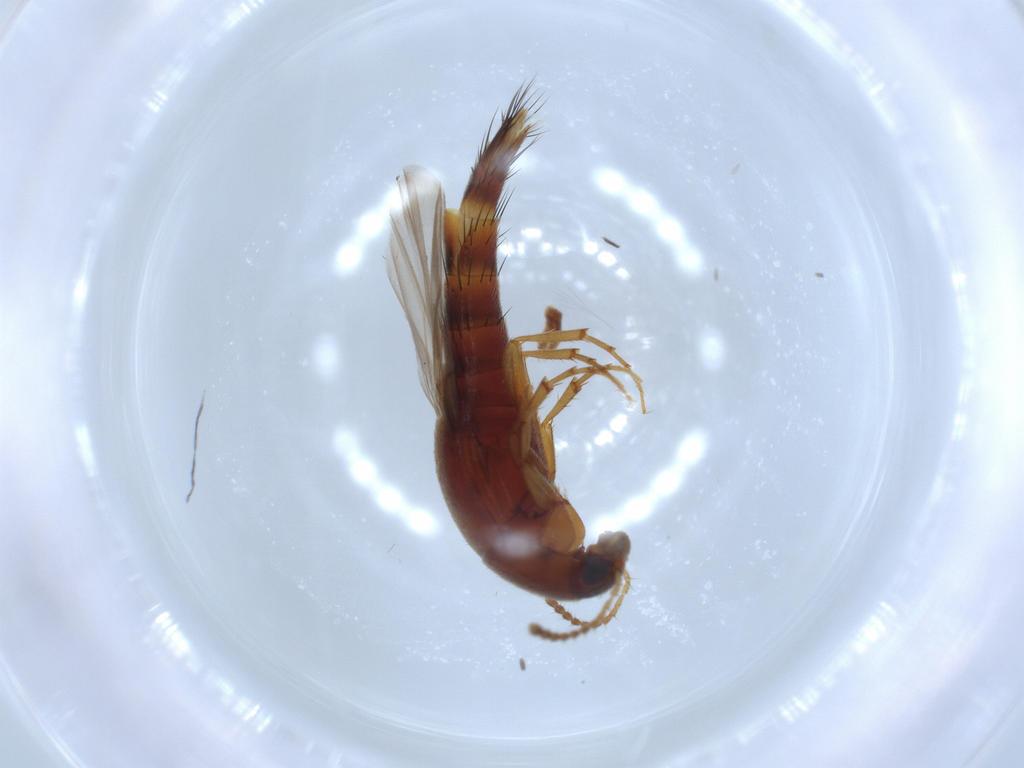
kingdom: Animalia
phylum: Arthropoda
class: Insecta
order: Coleoptera
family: Staphylinidae
